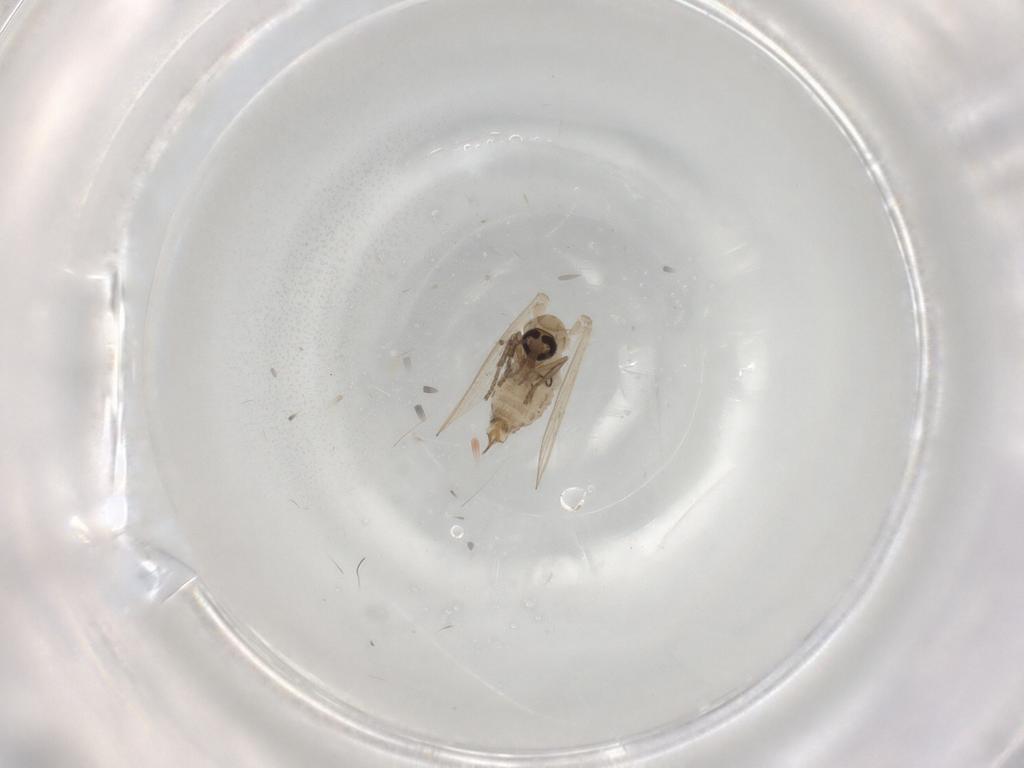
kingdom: Animalia
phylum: Arthropoda
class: Insecta
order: Diptera
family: Psychodidae
